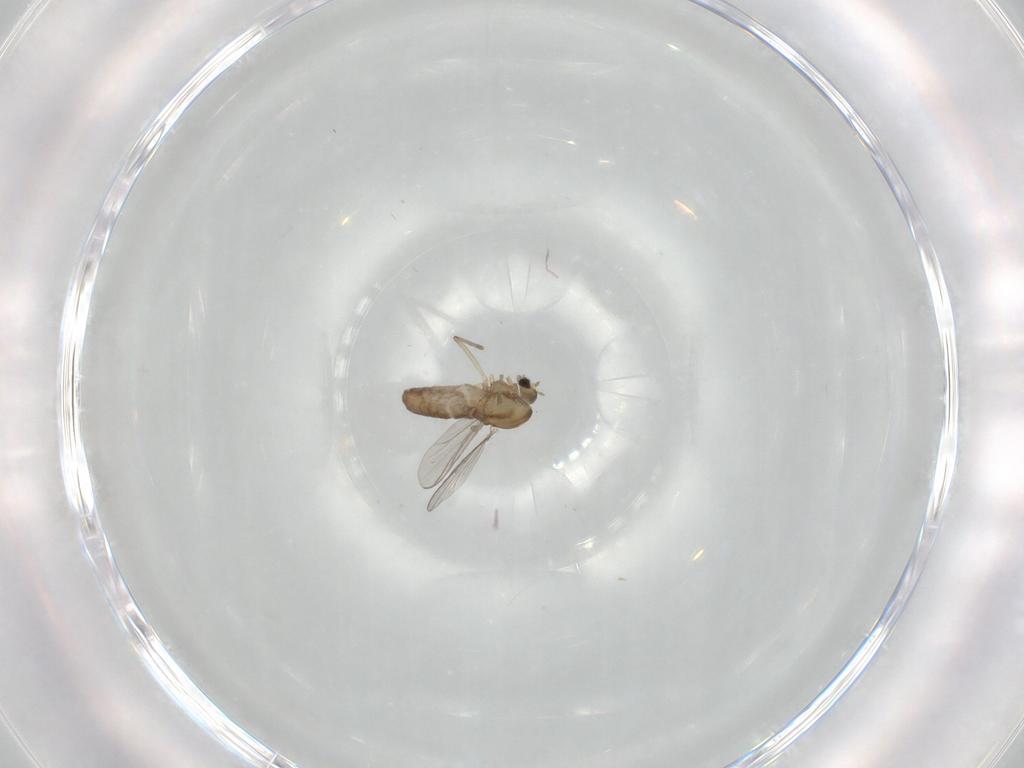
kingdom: Animalia
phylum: Arthropoda
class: Insecta
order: Diptera
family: Chironomidae
